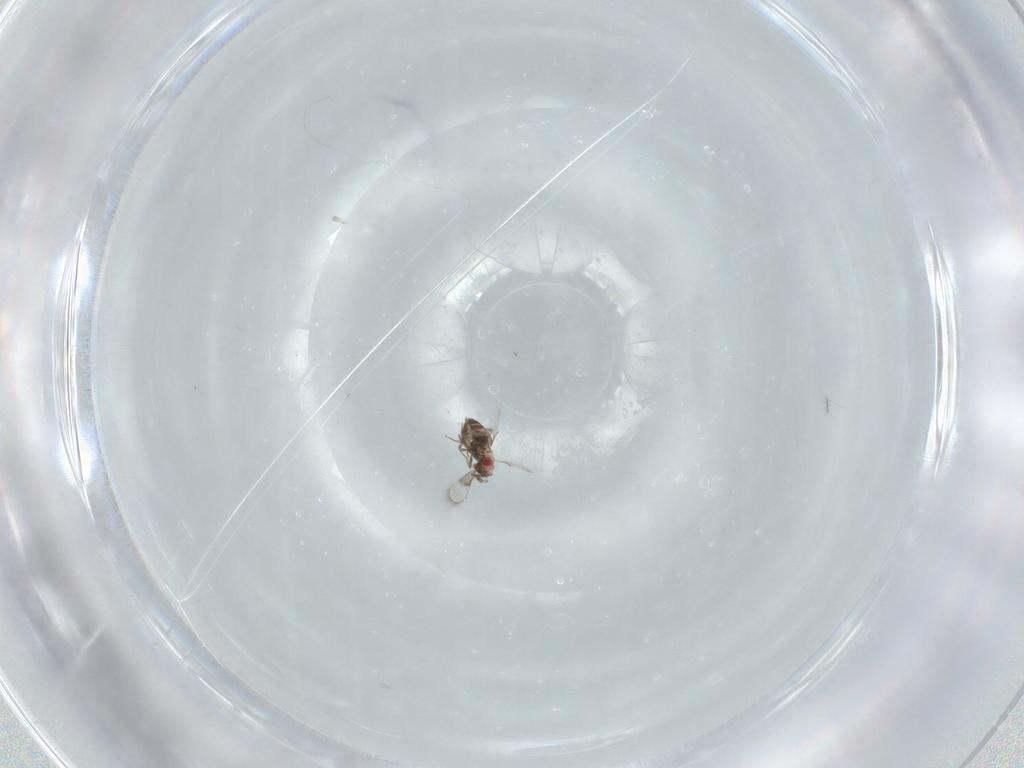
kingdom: Animalia
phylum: Arthropoda
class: Insecta
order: Hymenoptera
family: Trichogrammatidae
